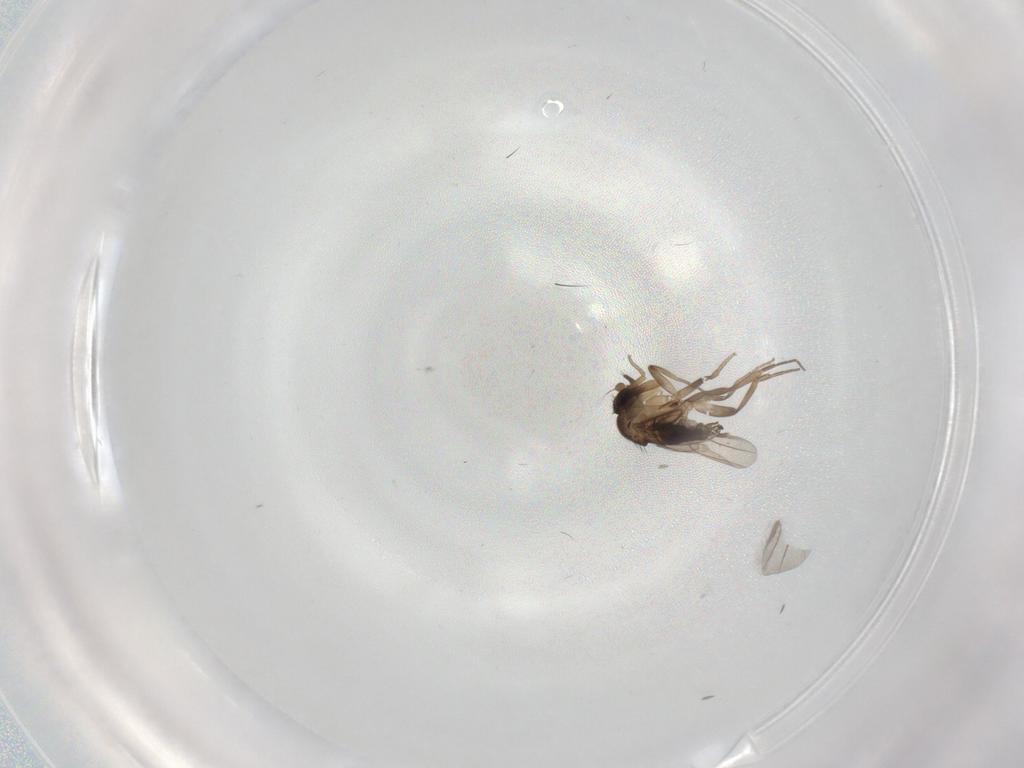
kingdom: Animalia
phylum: Arthropoda
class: Insecta
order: Diptera
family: Phoridae
